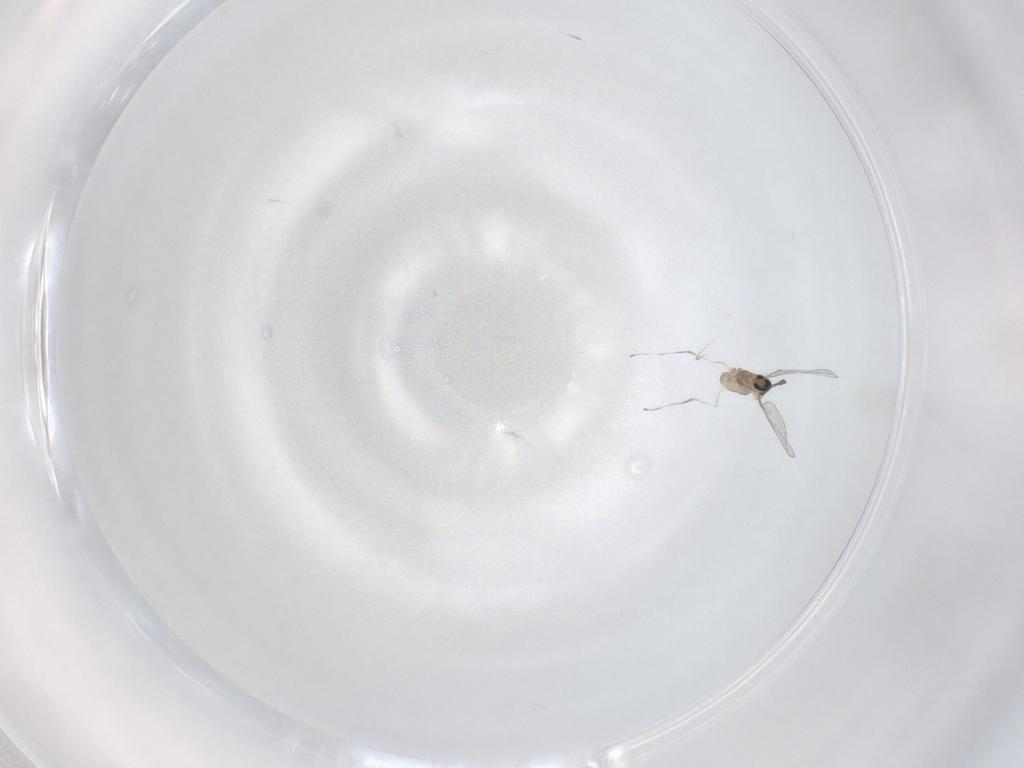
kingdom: Animalia
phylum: Arthropoda
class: Insecta
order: Diptera
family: Cecidomyiidae
